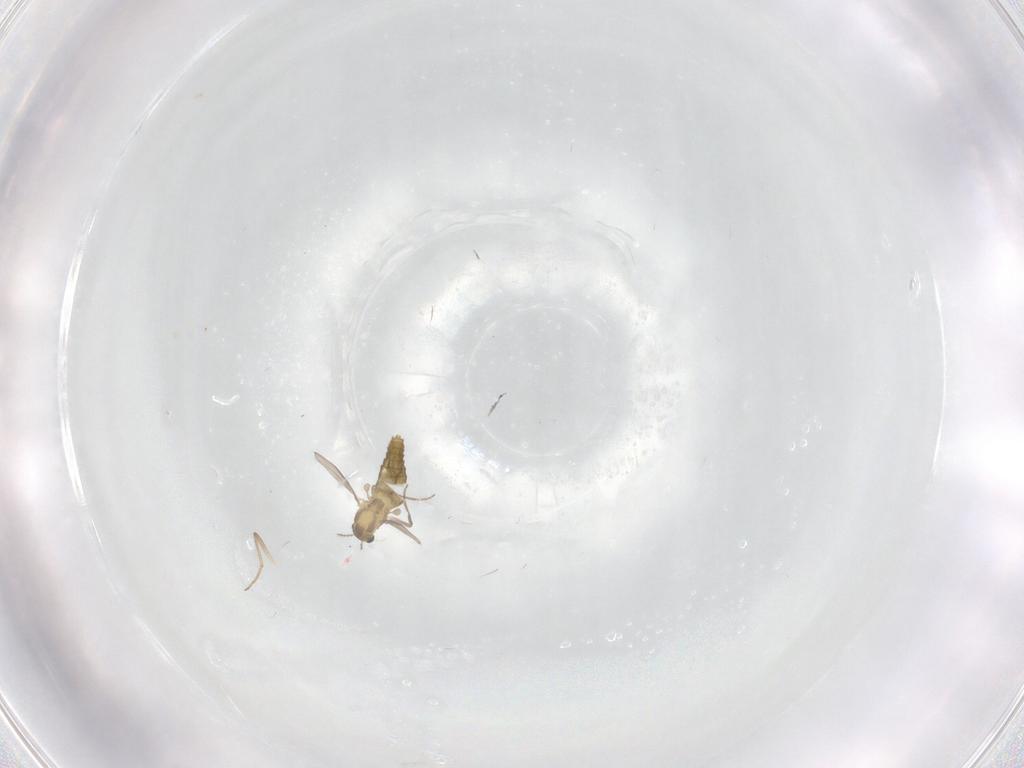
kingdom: Animalia
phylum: Arthropoda
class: Insecta
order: Diptera
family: Chironomidae
